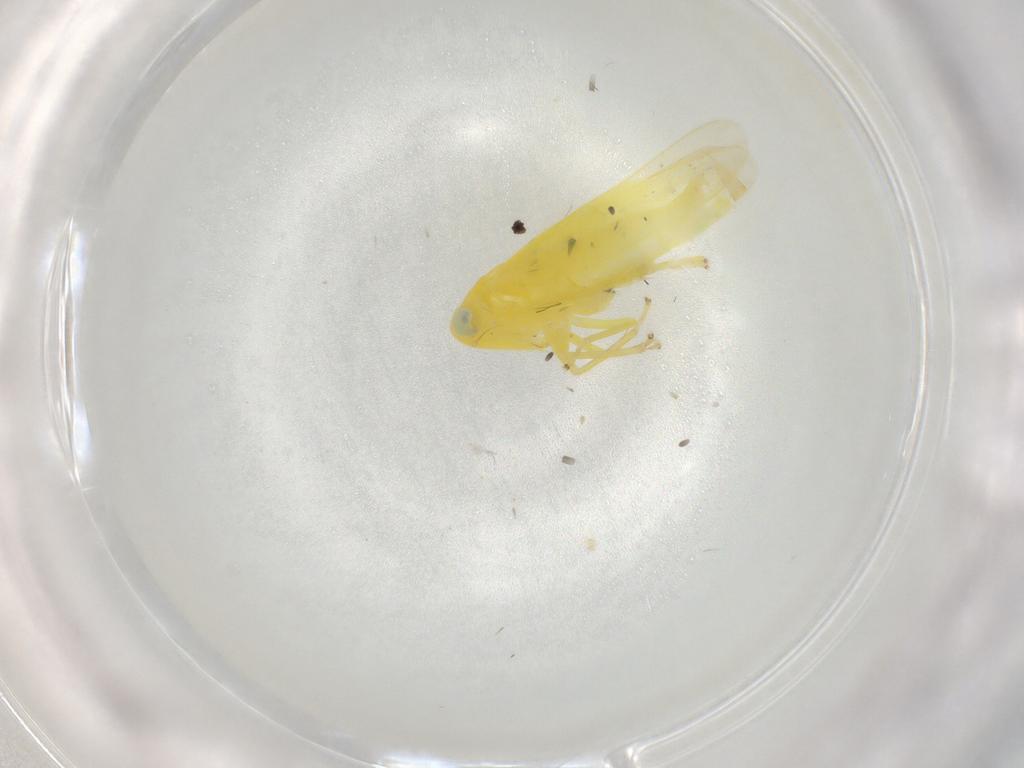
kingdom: Animalia
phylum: Arthropoda
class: Insecta
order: Hemiptera
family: Cicadellidae
